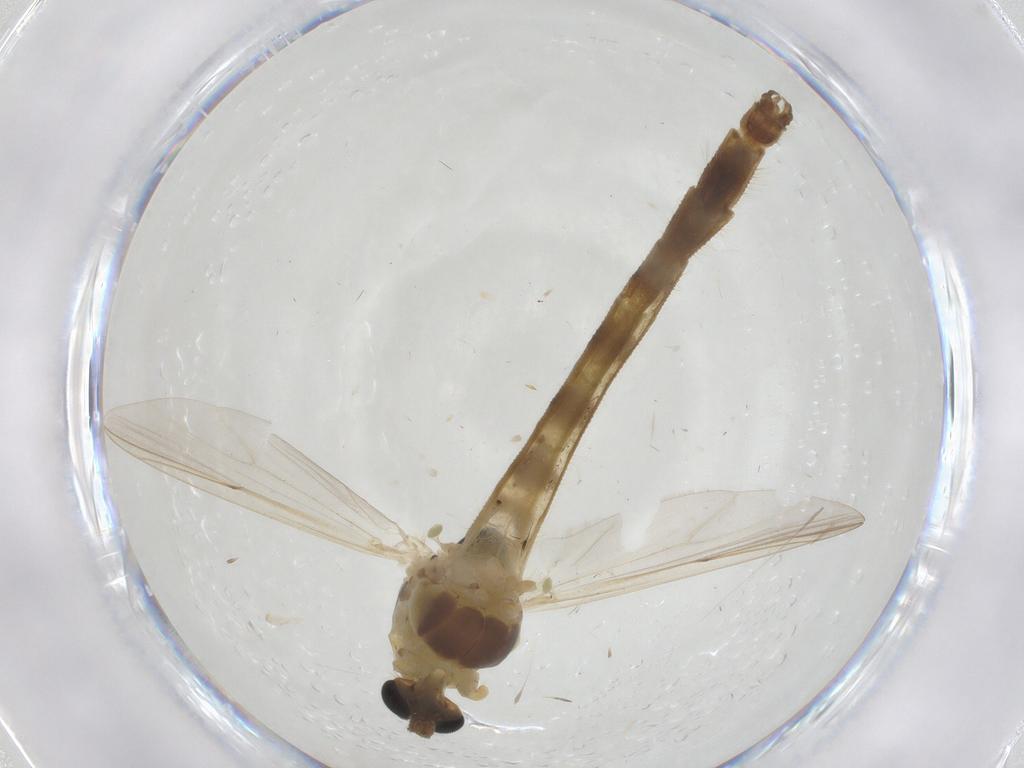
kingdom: Animalia
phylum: Arthropoda
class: Insecta
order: Diptera
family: Chironomidae
